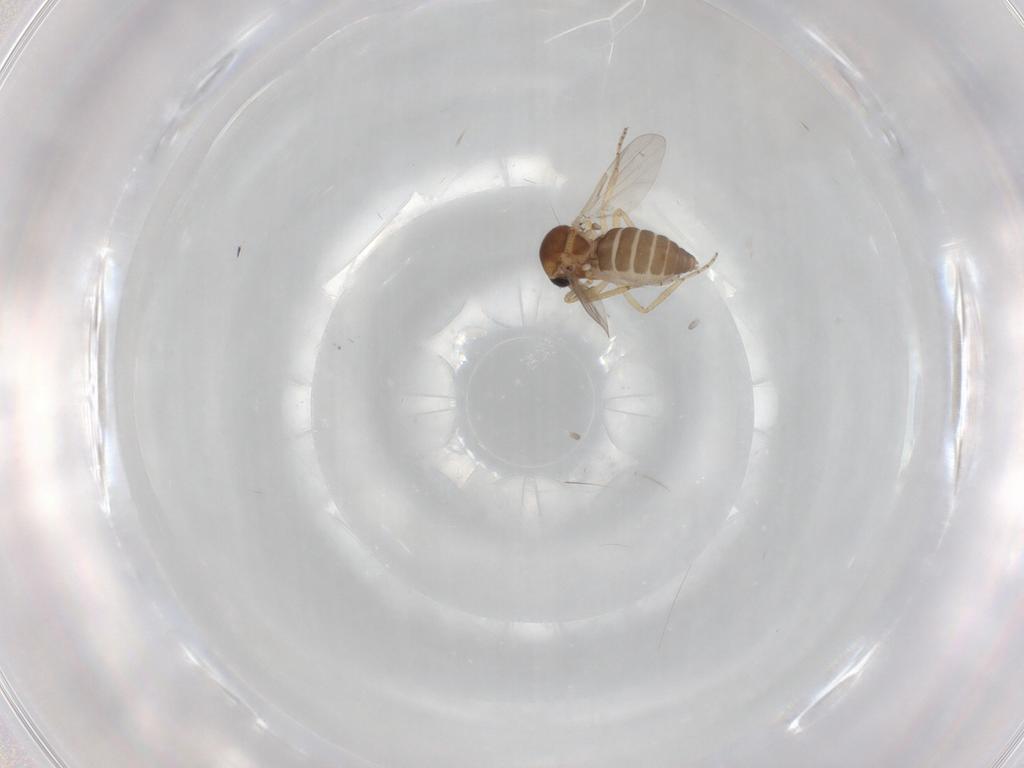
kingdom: Animalia
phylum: Arthropoda
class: Insecta
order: Diptera
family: Ceratopogonidae
